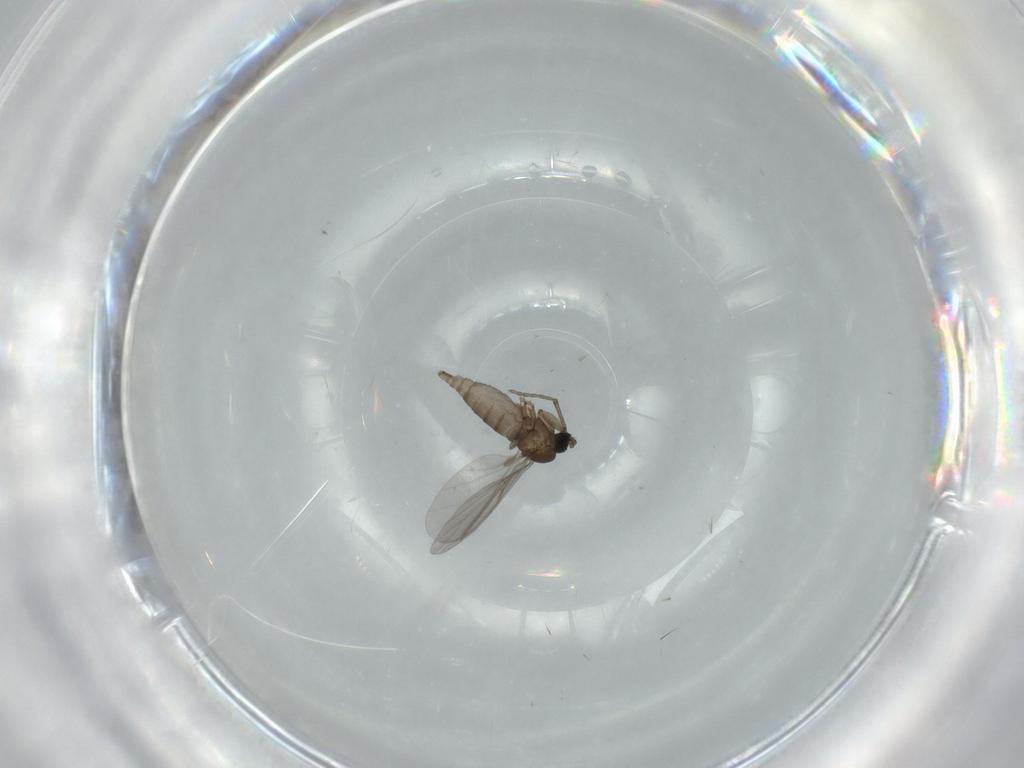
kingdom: Animalia
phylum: Arthropoda
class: Insecta
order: Diptera
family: Sciaridae
